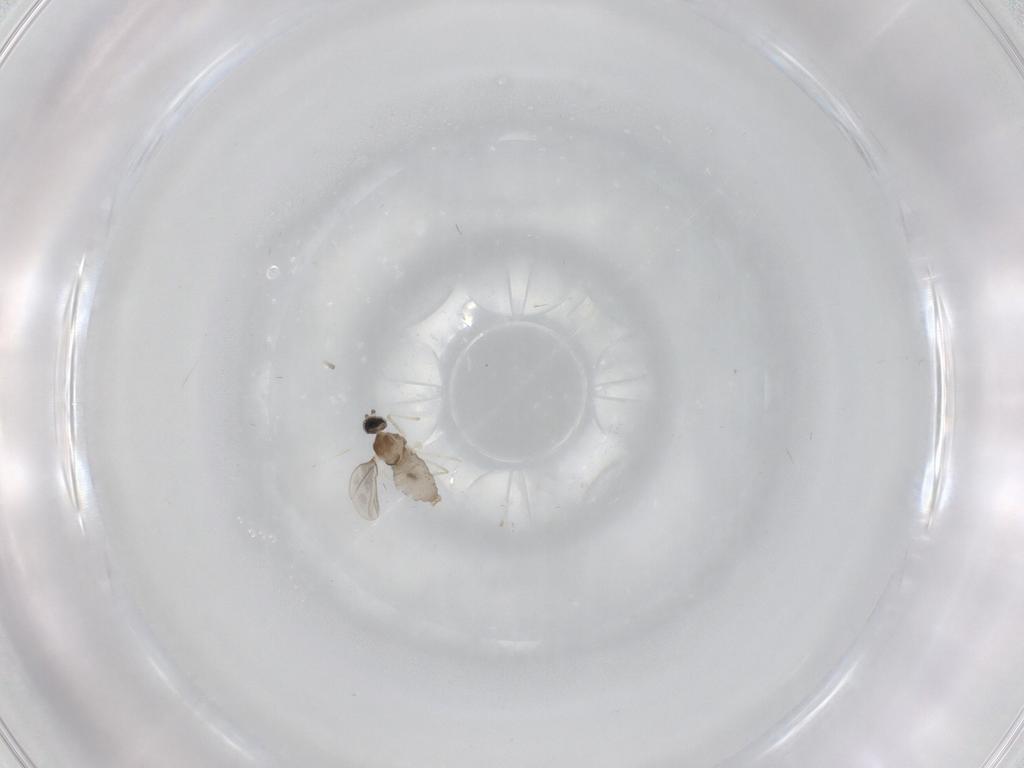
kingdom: Animalia
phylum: Arthropoda
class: Insecta
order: Diptera
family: Cecidomyiidae
